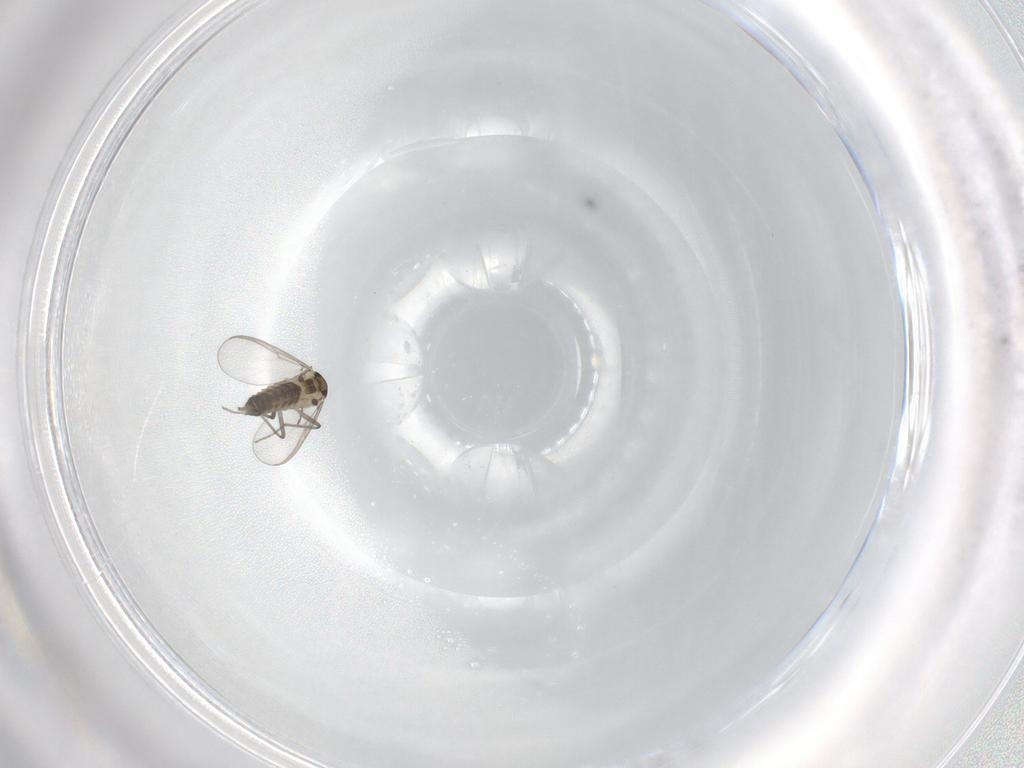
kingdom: Animalia
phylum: Arthropoda
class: Insecta
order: Diptera
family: Chironomidae
